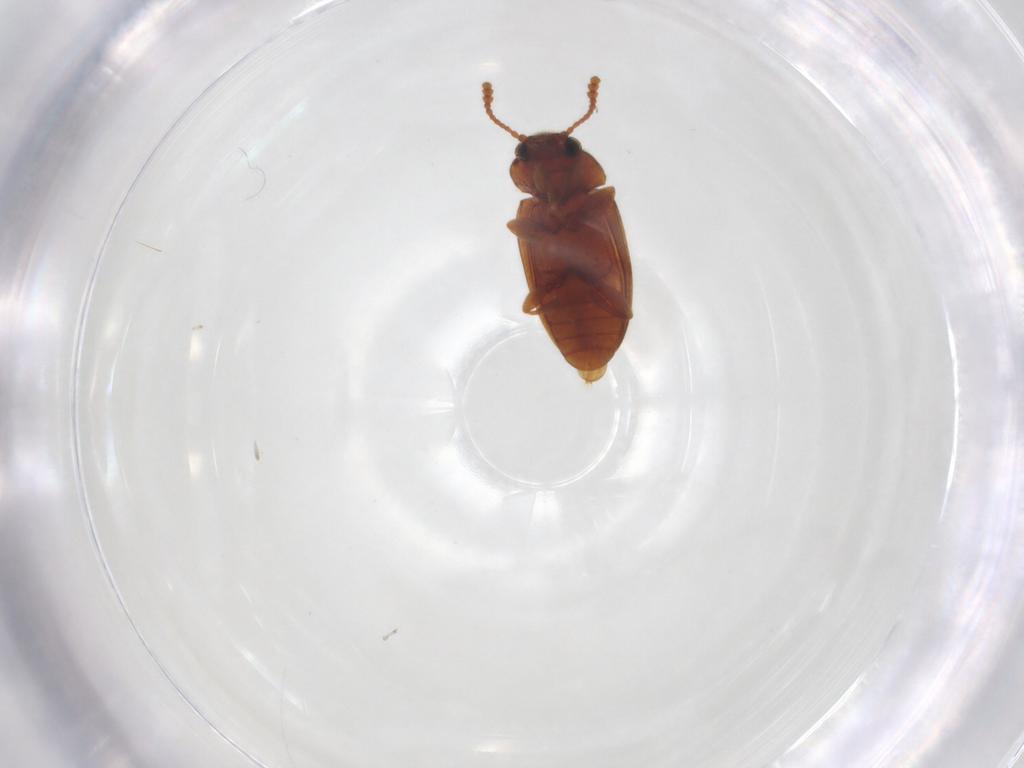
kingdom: Animalia
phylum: Arthropoda
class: Insecta
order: Coleoptera
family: Erotylidae
